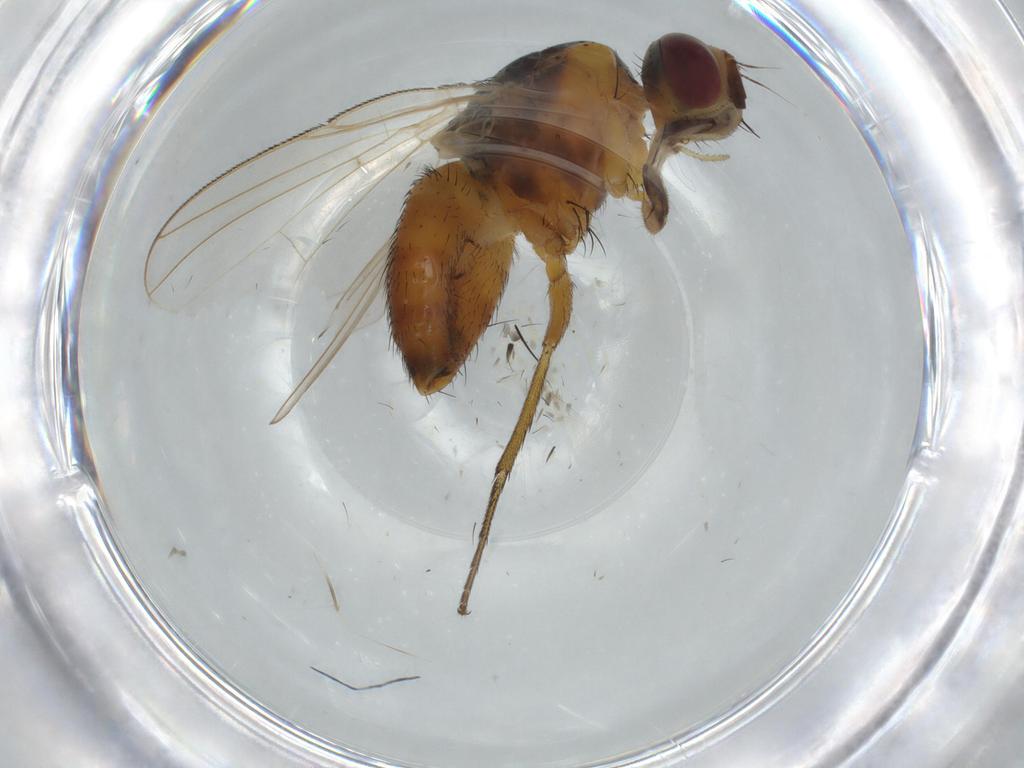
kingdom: Animalia
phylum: Arthropoda
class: Insecta
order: Diptera
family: Muscidae
